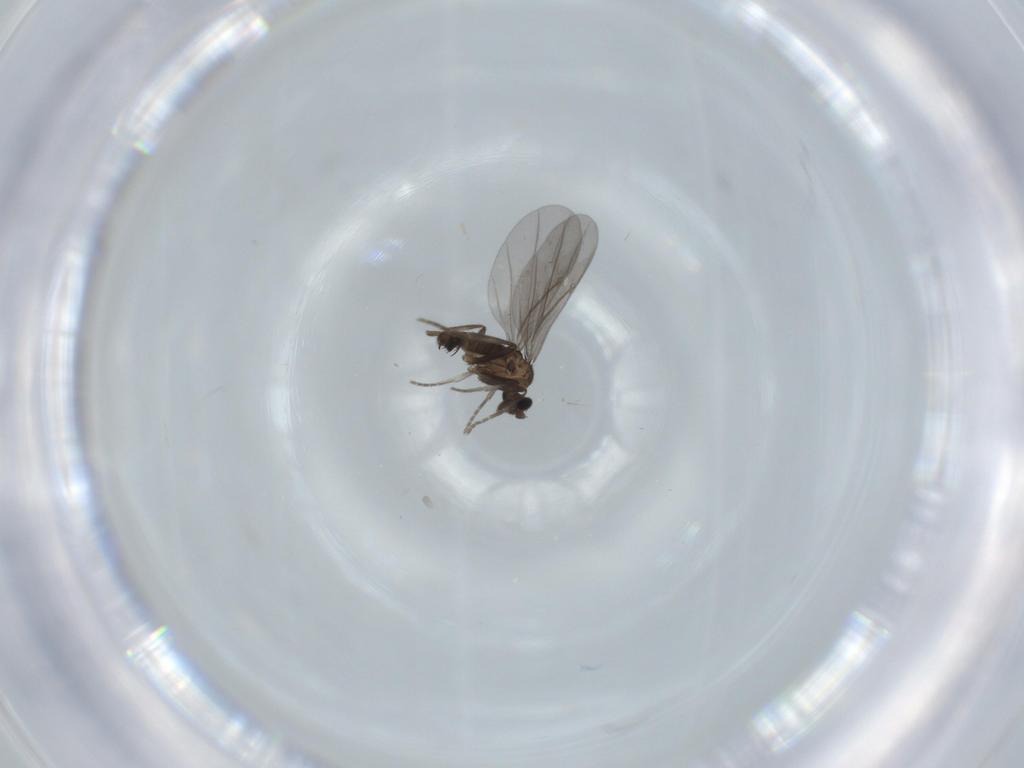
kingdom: Animalia
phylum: Arthropoda
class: Insecta
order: Diptera
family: Phoridae
